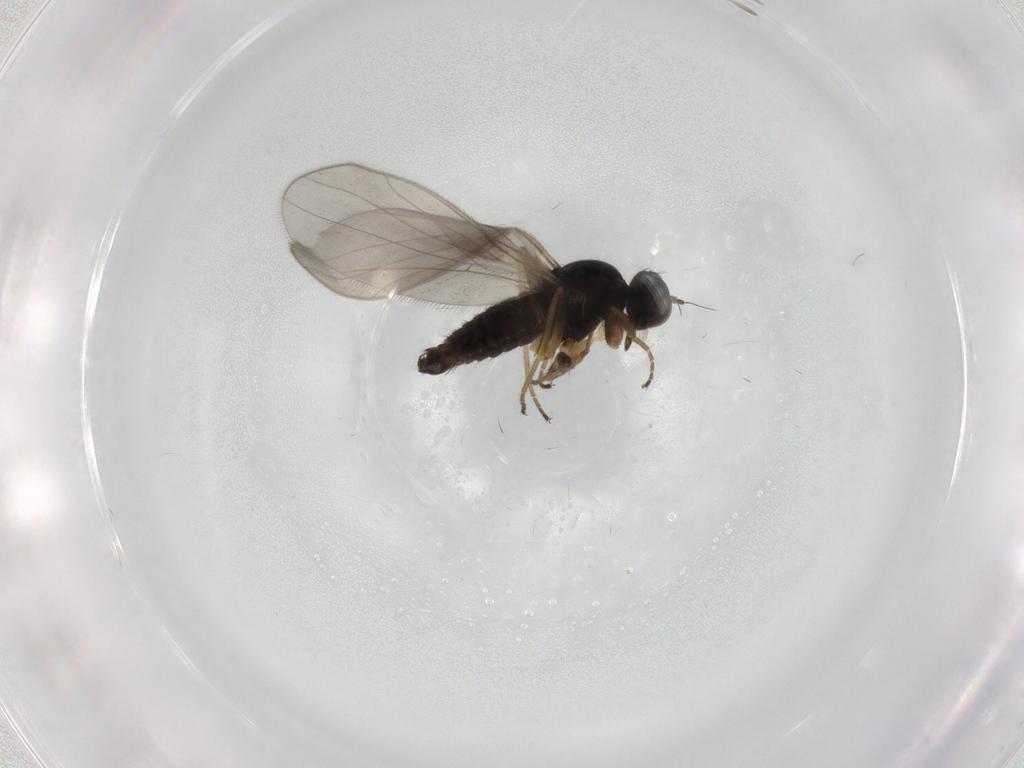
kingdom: Animalia
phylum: Arthropoda
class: Insecta
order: Diptera
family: Hybotidae
